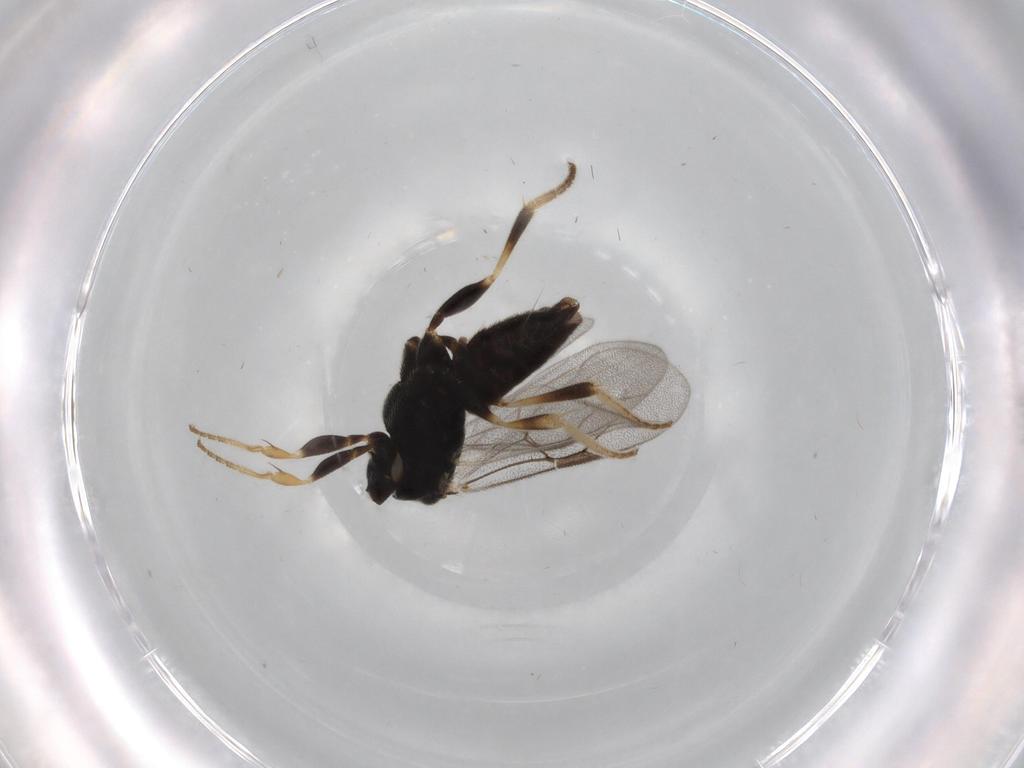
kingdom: Animalia
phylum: Arthropoda
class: Insecta
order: Hymenoptera
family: Dryinidae
